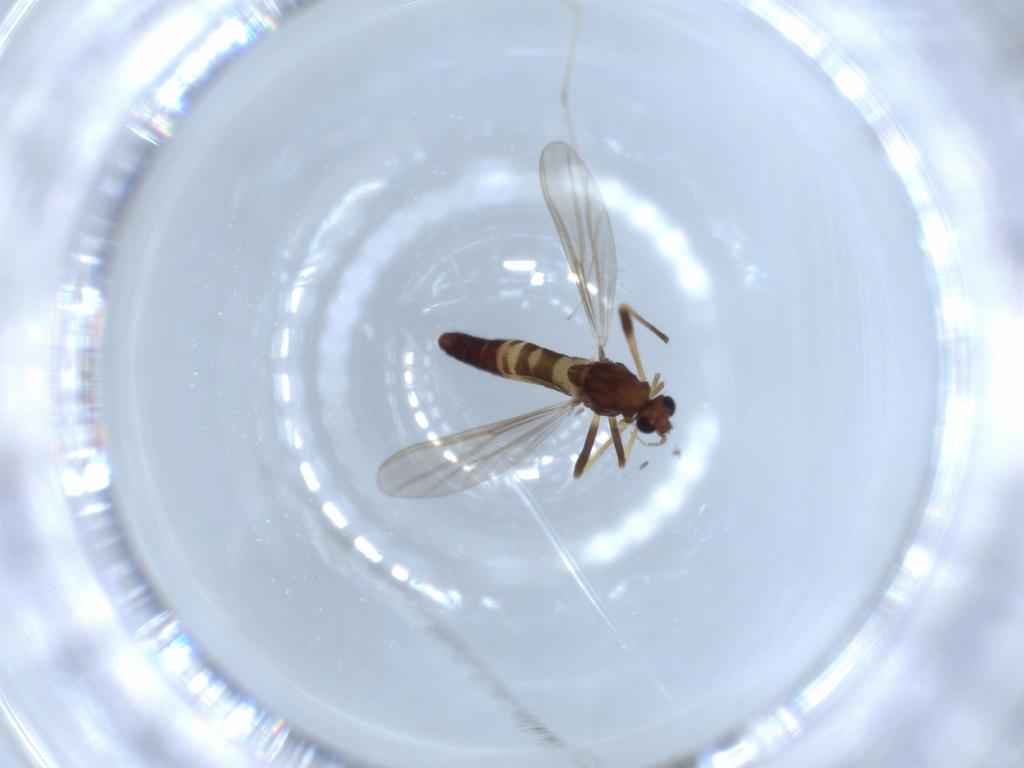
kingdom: Animalia
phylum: Arthropoda
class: Insecta
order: Diptera
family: Cecidomyiidae
